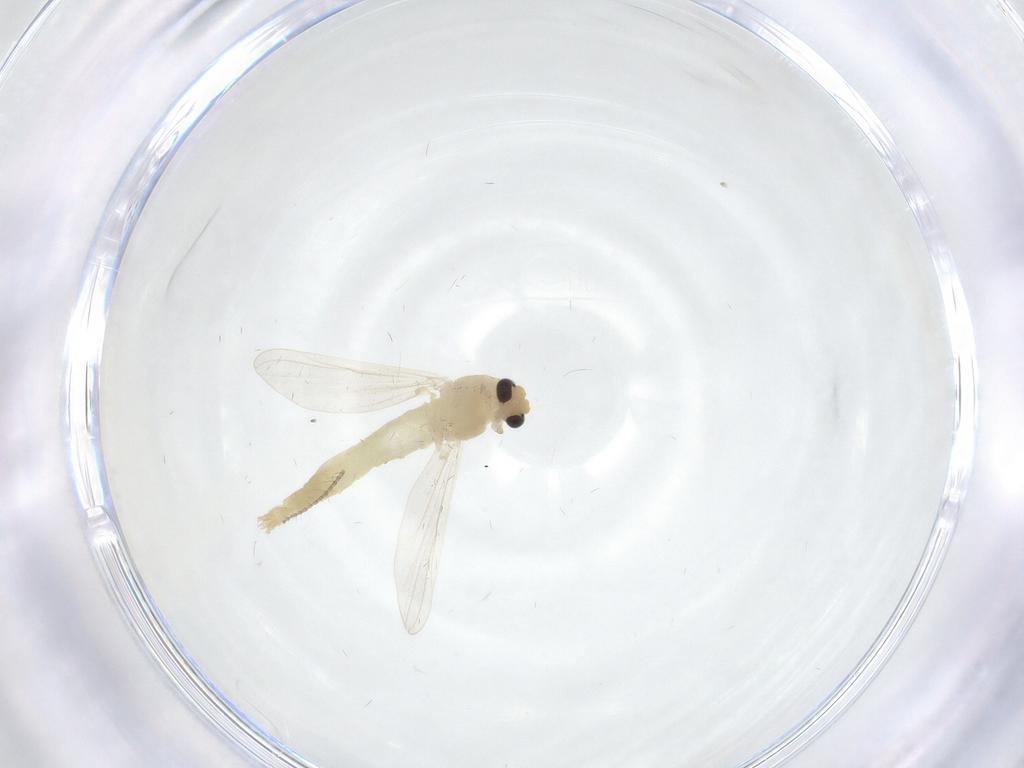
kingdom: Animalia
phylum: Arthropoda
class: Insecta
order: Diptera
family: Chironomidae
